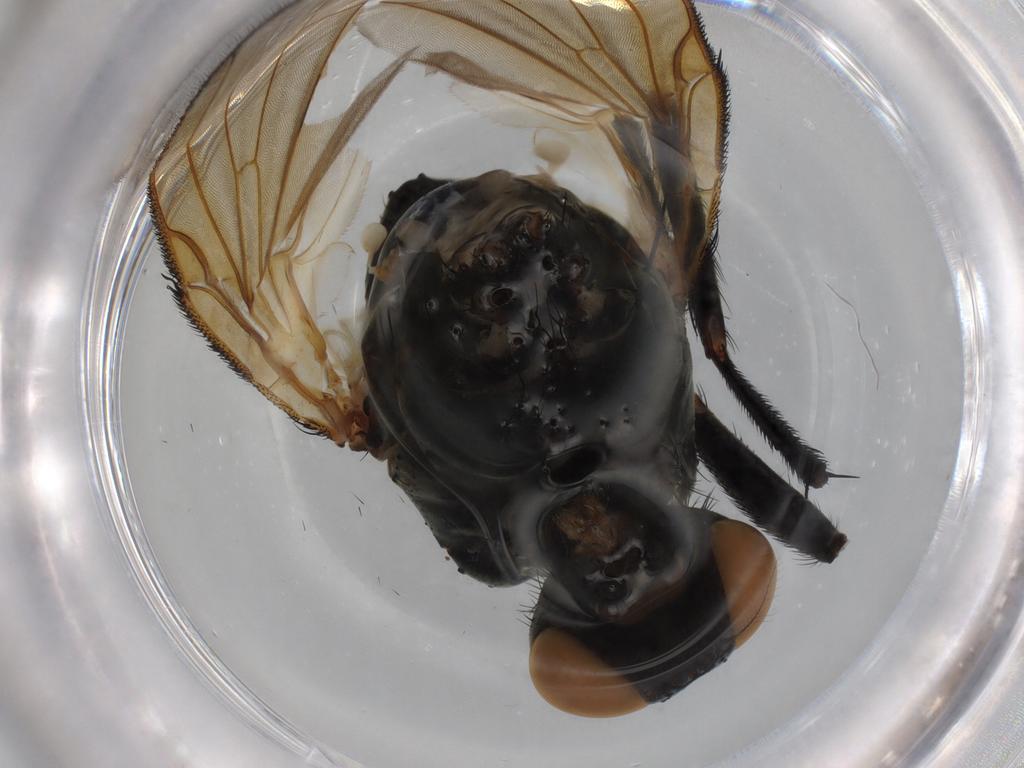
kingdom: Animalia
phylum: Arthropoda
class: Insecta
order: Diptera
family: Anthomyiidae
